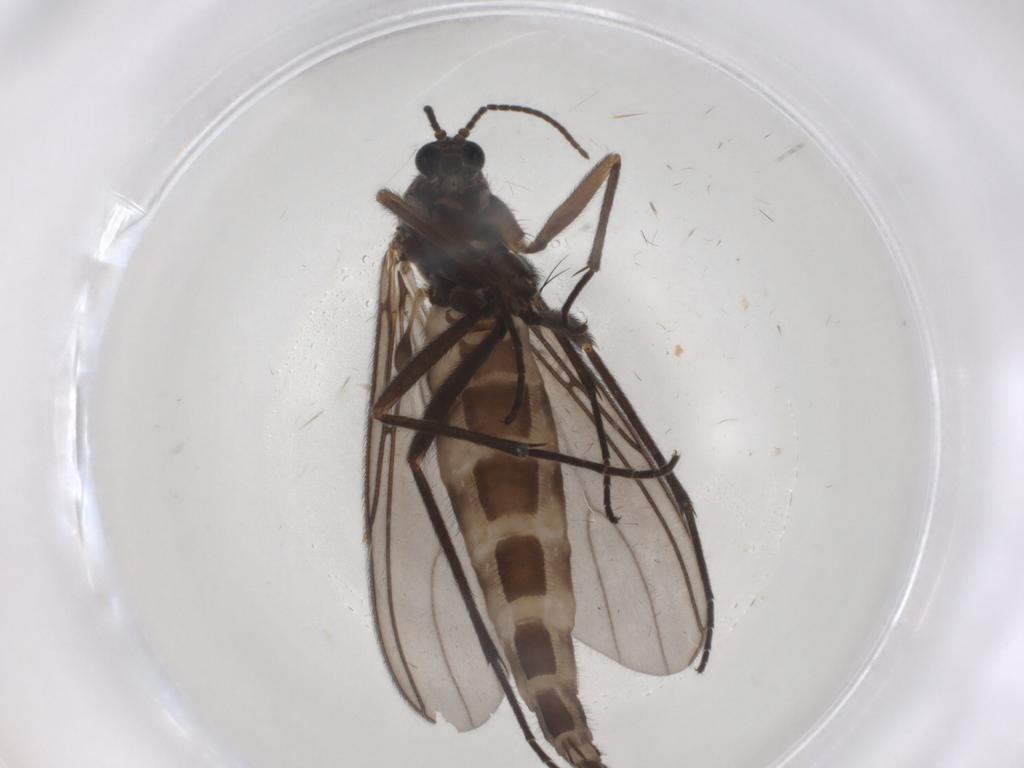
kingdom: Animalia
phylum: Arthropoda
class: Insecta
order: Diptera
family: Sciaridae
